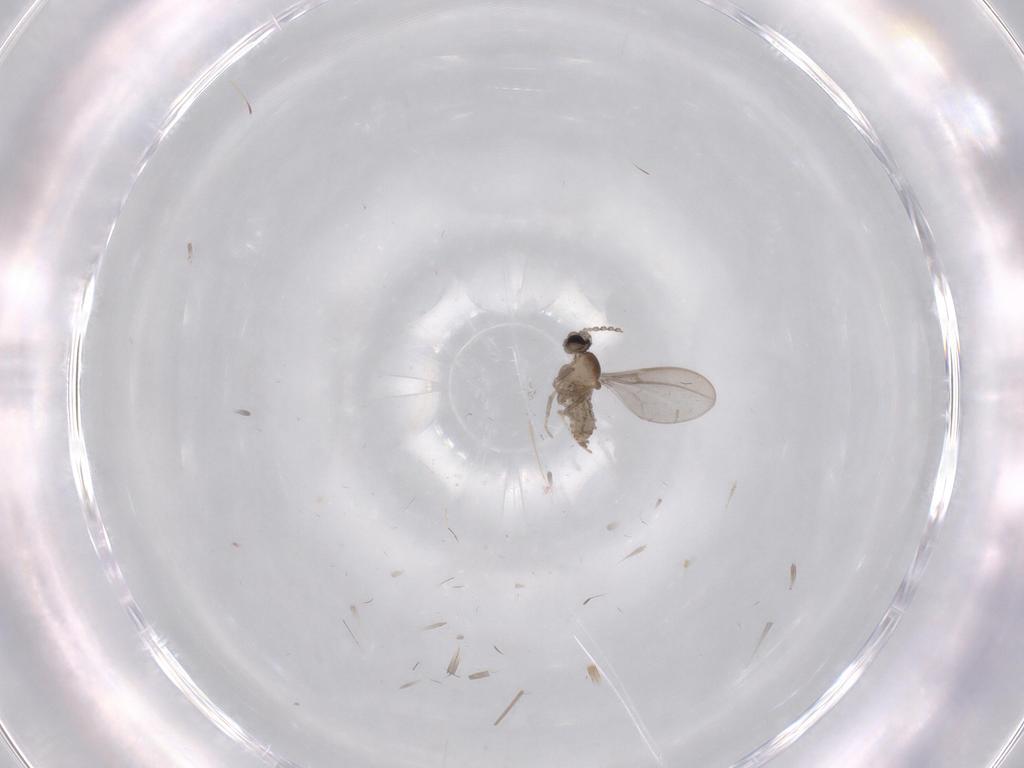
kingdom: Animalia
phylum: Arthropoda
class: Insecta
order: Diptera
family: Cecidomyiidae
